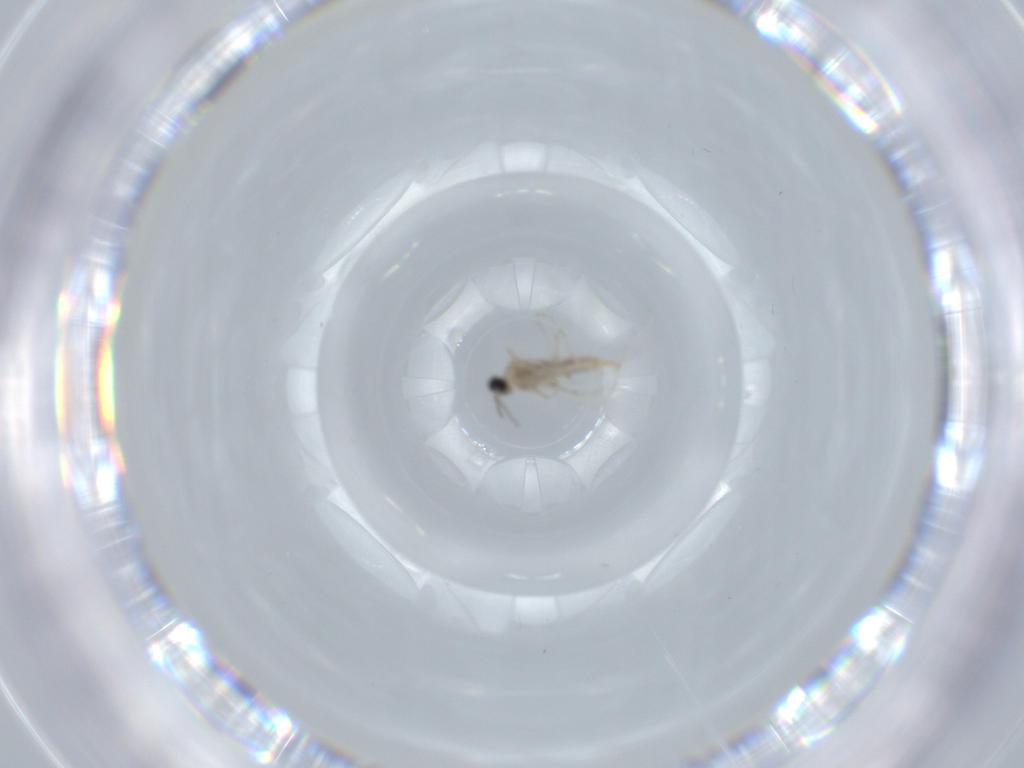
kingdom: Animalia
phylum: Arthropoda
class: Insecta
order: Diptera
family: Cecidomyiidae
